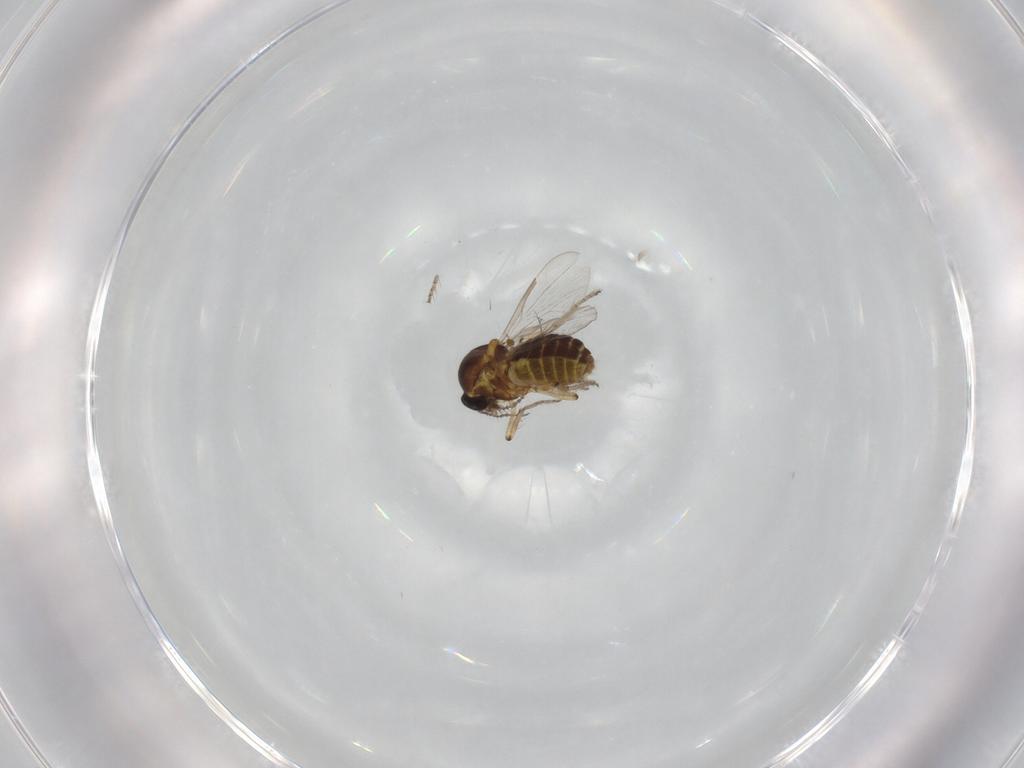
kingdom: Animalia
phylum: Arthropoda
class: Insecta
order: Diptera
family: Ceratopogonidae
